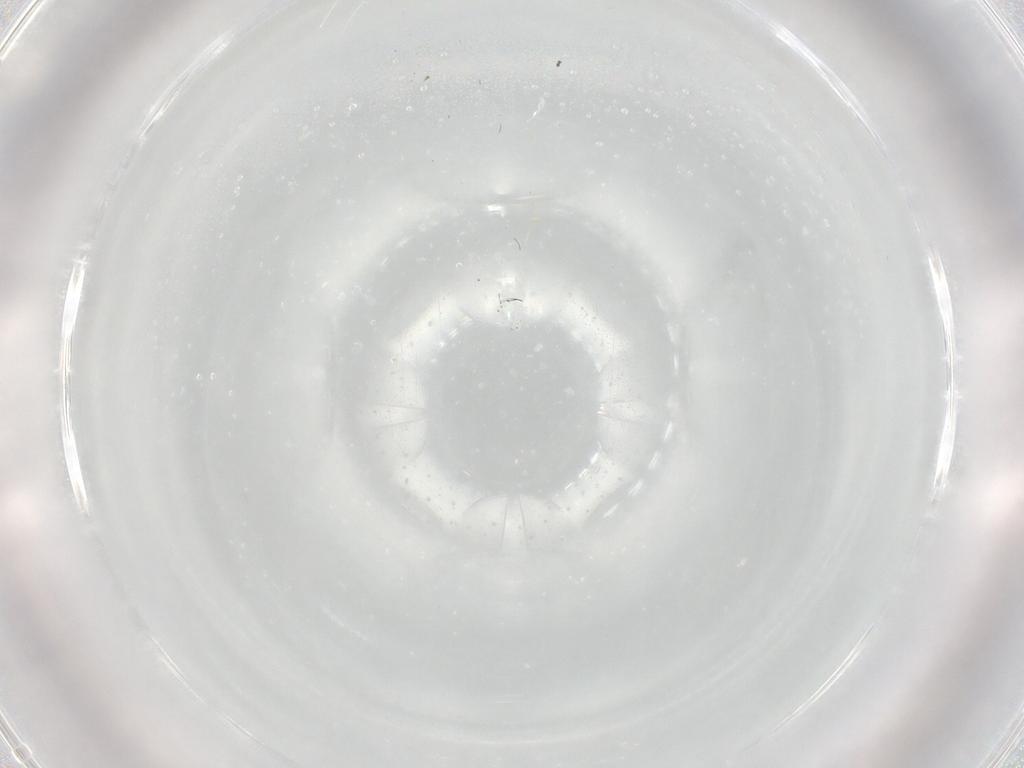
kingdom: Animalia
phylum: Arthropoda
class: Insecta
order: Diptera
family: Cecidomyiidae
